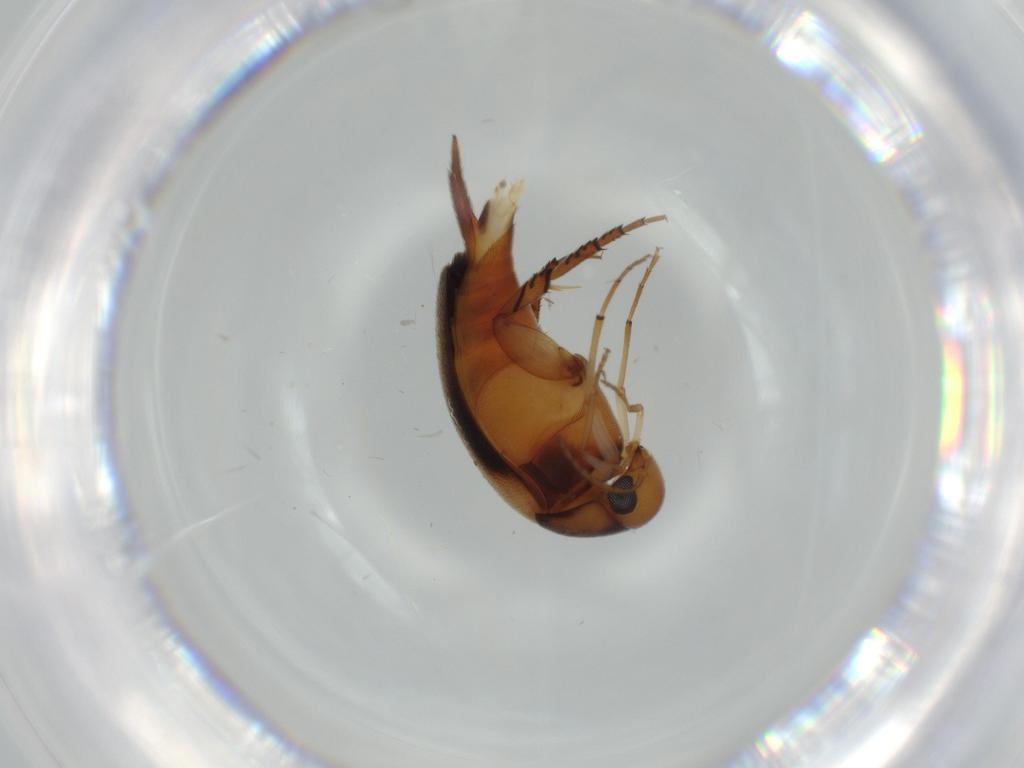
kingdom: Animalia
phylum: Arthropoda
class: Insecta
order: Coleoptera
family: Mordellidae
